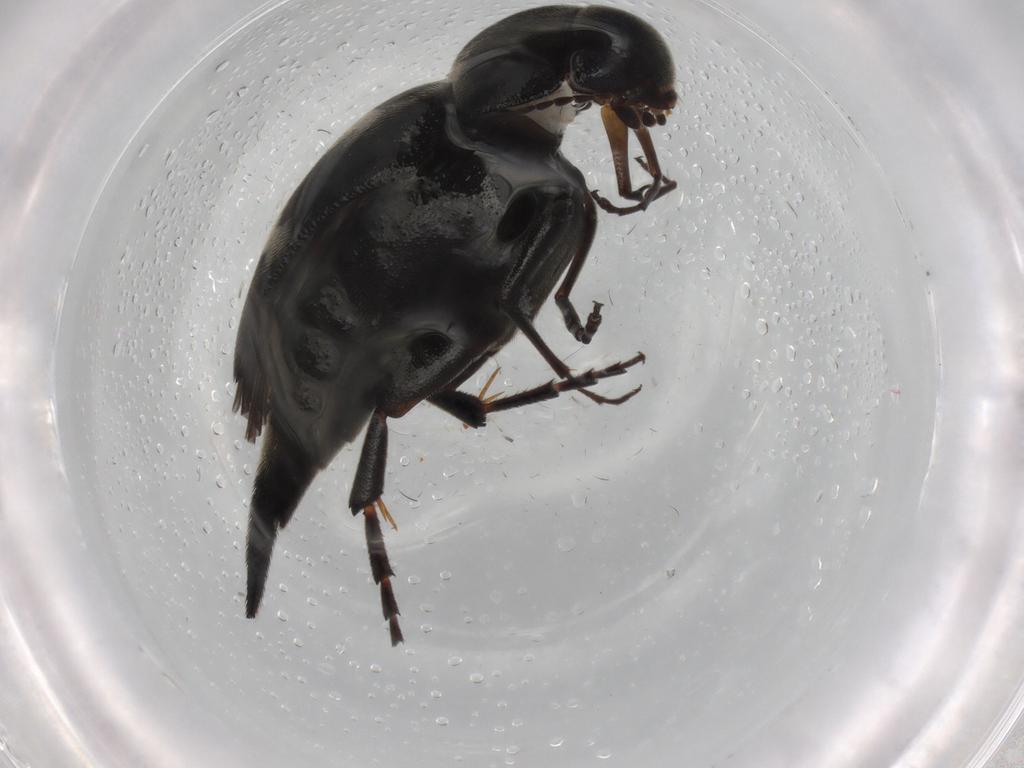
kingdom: Animalia
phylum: Arthropoda
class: Insecta
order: Coleoptera
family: Mordellidae
